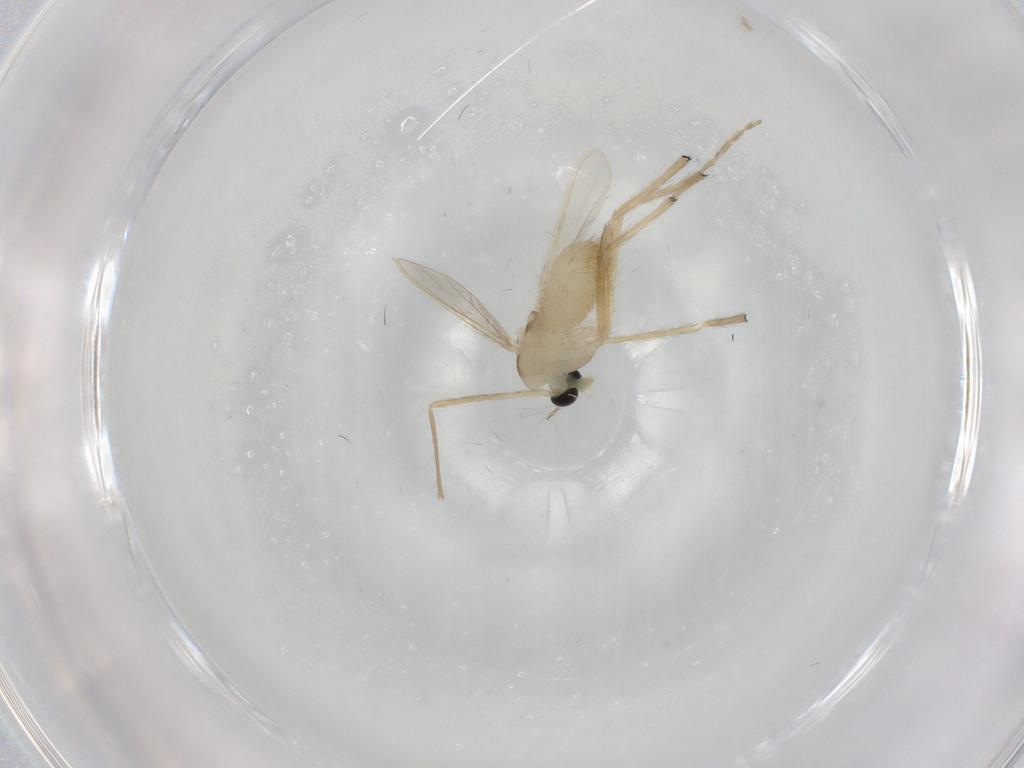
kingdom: Animalia
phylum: Arthropoda
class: Insecta
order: Diptera
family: Chironomidae
